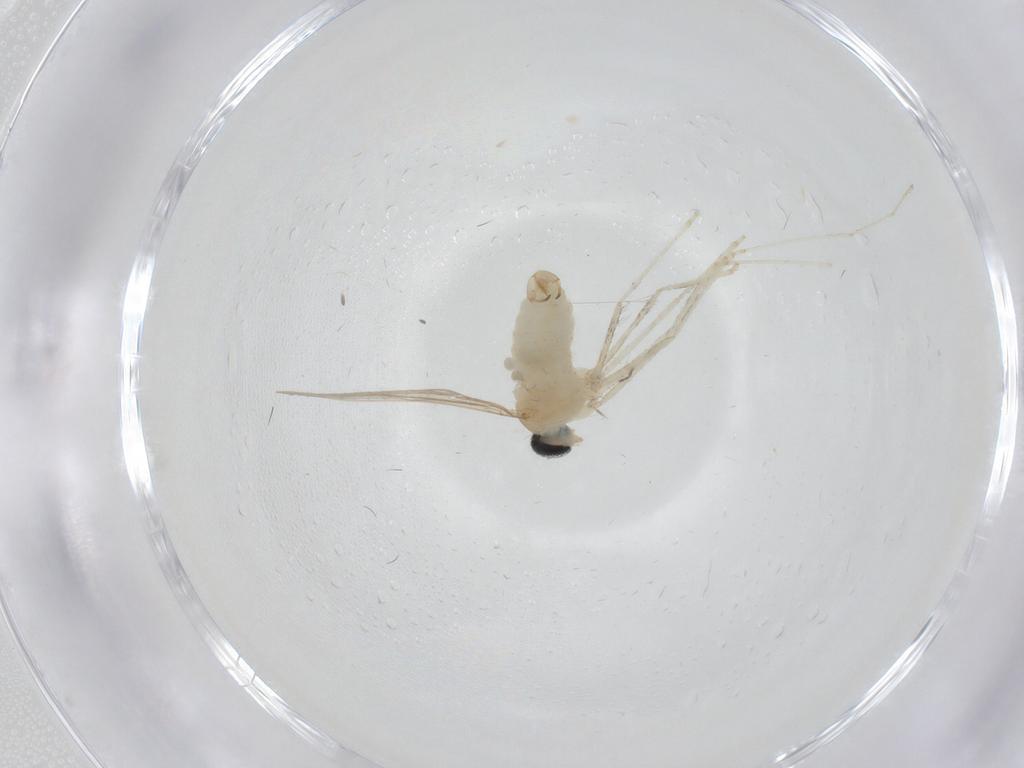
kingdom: Animalia
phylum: Arthropoda
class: Insecta
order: Diptera
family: Chironomidae
